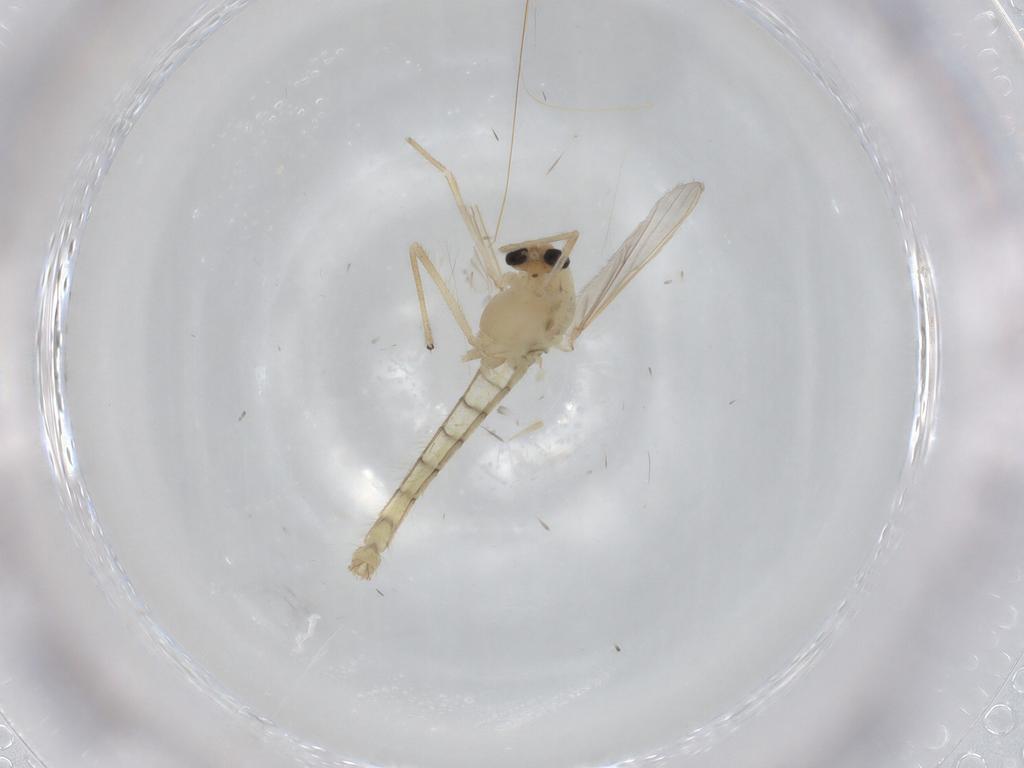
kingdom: Animalia
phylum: Arthropoda
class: Insecta
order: Diptera
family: Chironomidae
